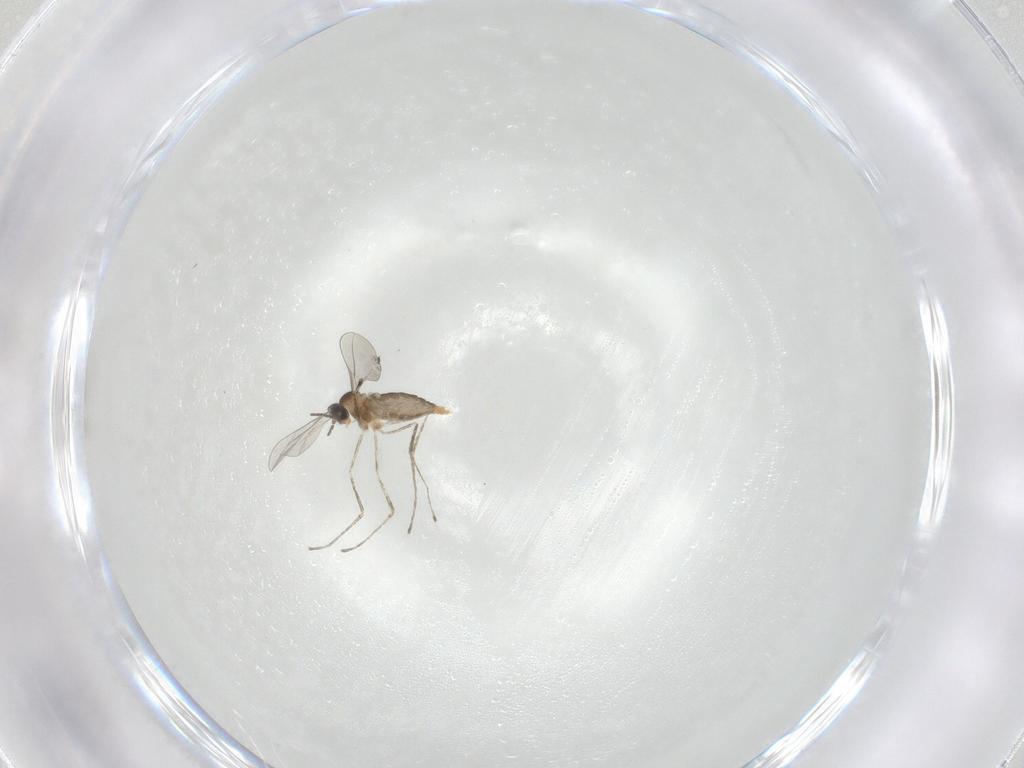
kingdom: Animalia
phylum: Arthropoda
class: Insecta
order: Diptera
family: Cecidomyiidae
